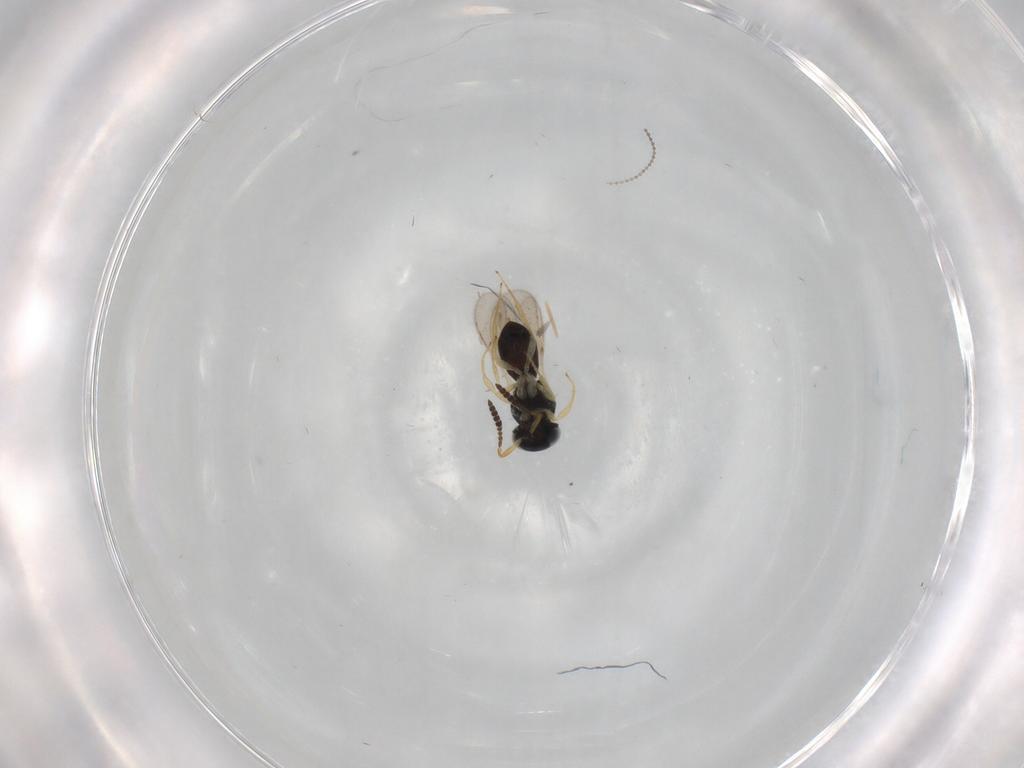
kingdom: Animalia
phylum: Arthropoda
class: Insecta
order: Hymenoptera
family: Scelionidae
